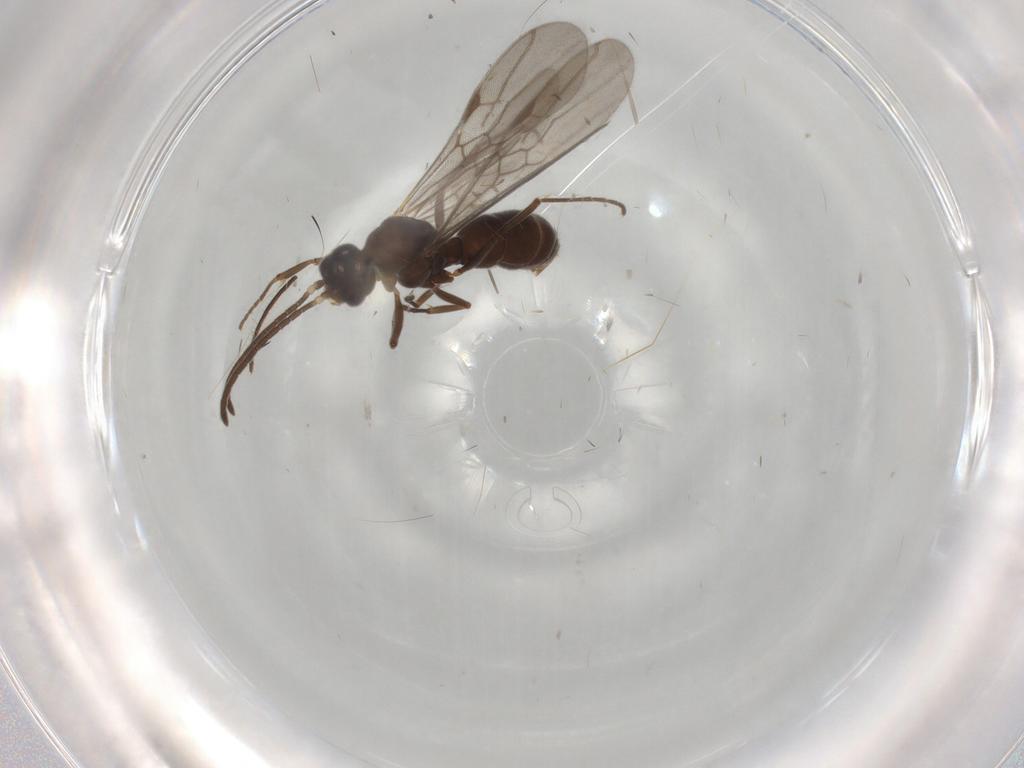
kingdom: Animalia
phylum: Arthropoda
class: Insecta
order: Hymenoptera
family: Formicidae
